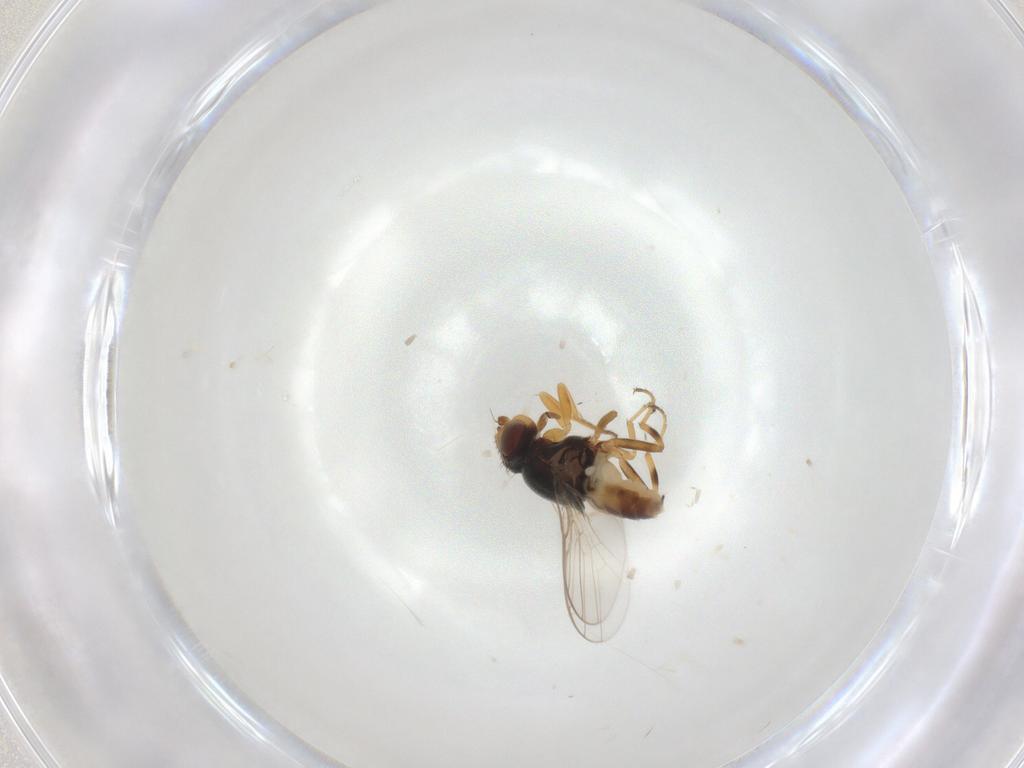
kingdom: Animalia
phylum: Arthropoda
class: Insecta
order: Diptera
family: Chloropidae
